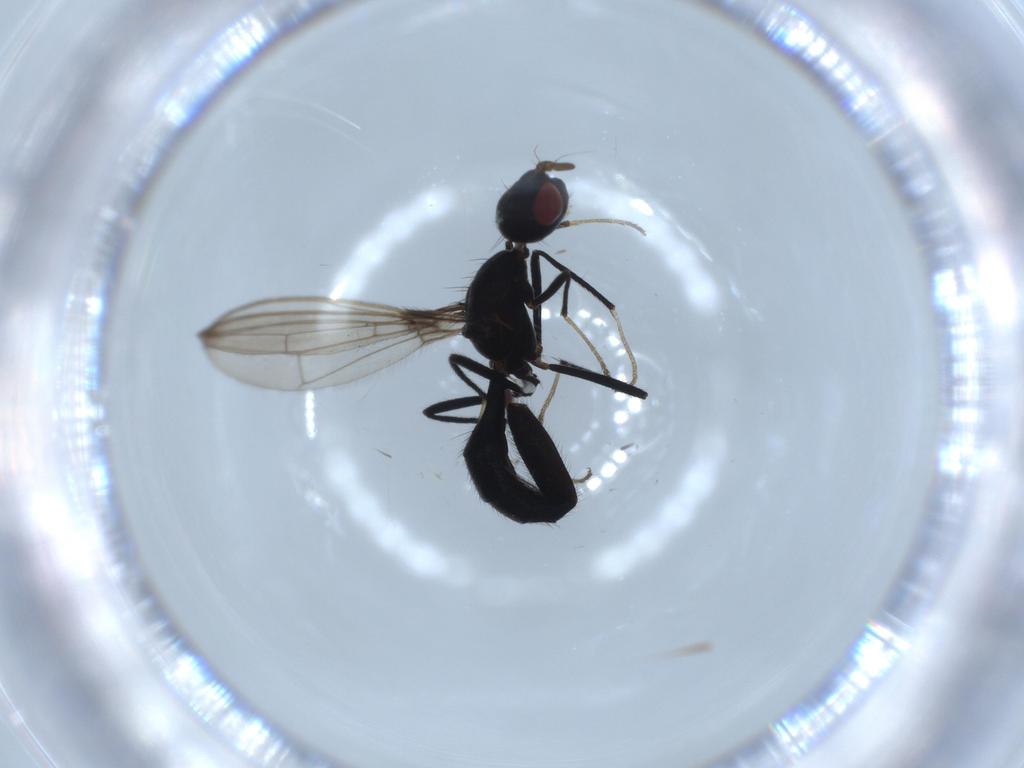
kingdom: Animalia
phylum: Arthropoda
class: Insecta
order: Diptera
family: Richardiidae
